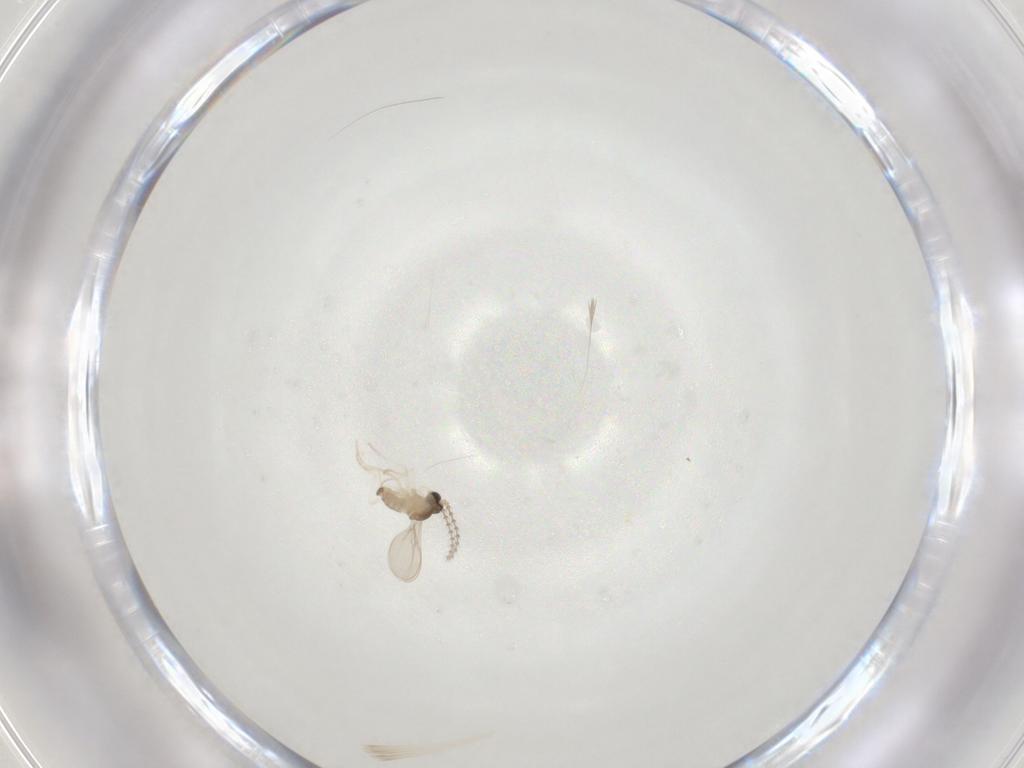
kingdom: Animalia
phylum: Arthropoda
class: Insecta
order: Diptera
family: Cecidomyiidae
